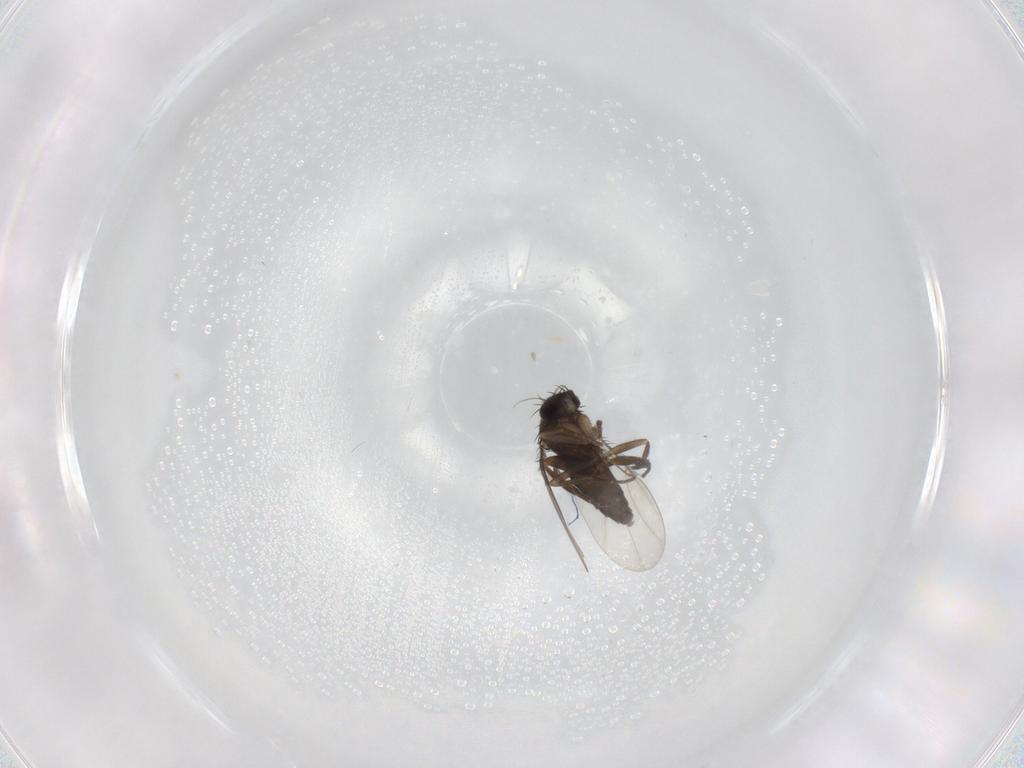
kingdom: Animalia
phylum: Arthropoda
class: Insecta
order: Diptera
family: Phoridae
